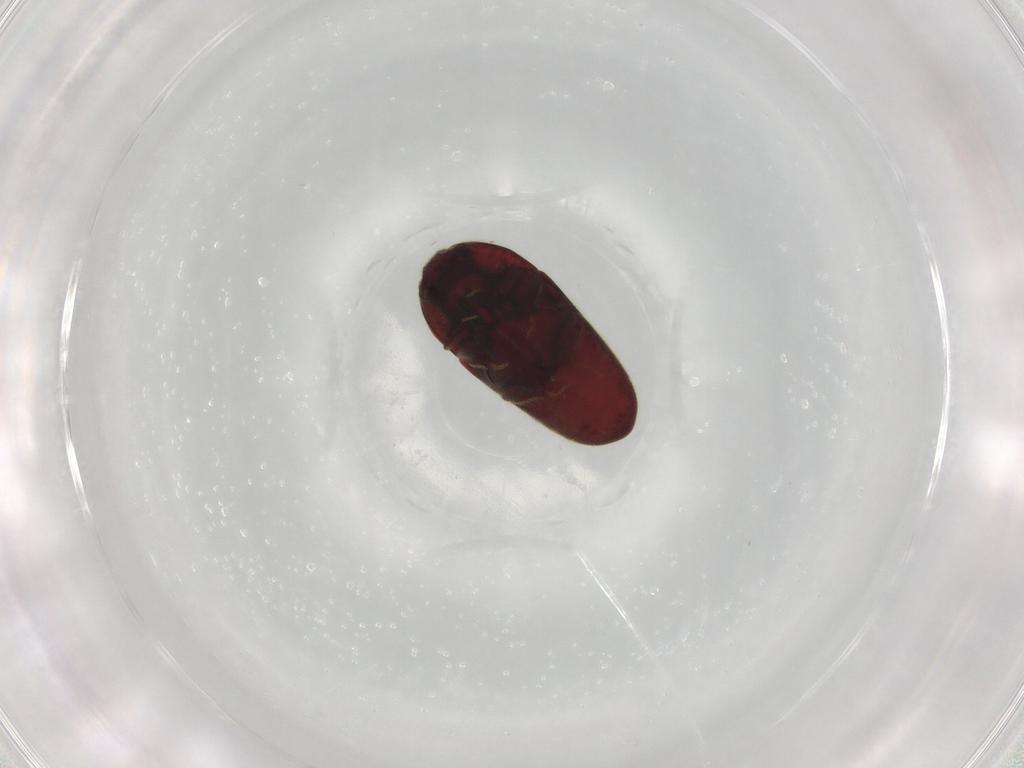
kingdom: Animalia
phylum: Arthropoda
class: Insecta
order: Coleoptera
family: Throscidae
